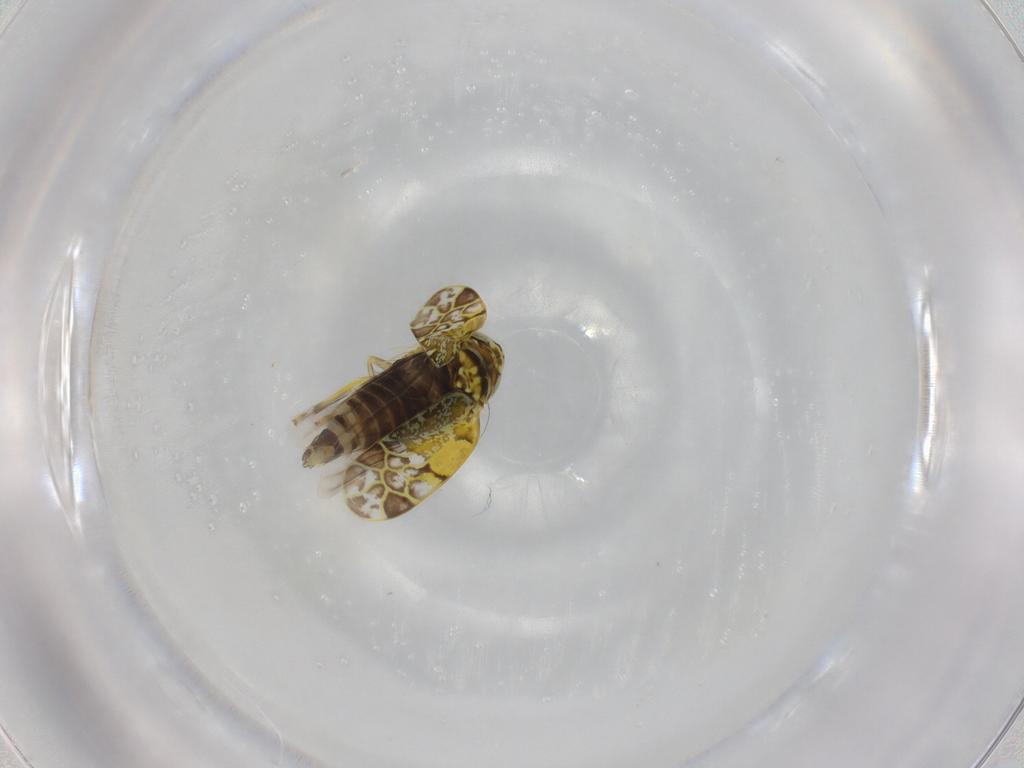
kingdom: Animalia
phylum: Arthropoda
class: Insecta
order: Hemiptera
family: Cicadellidae
